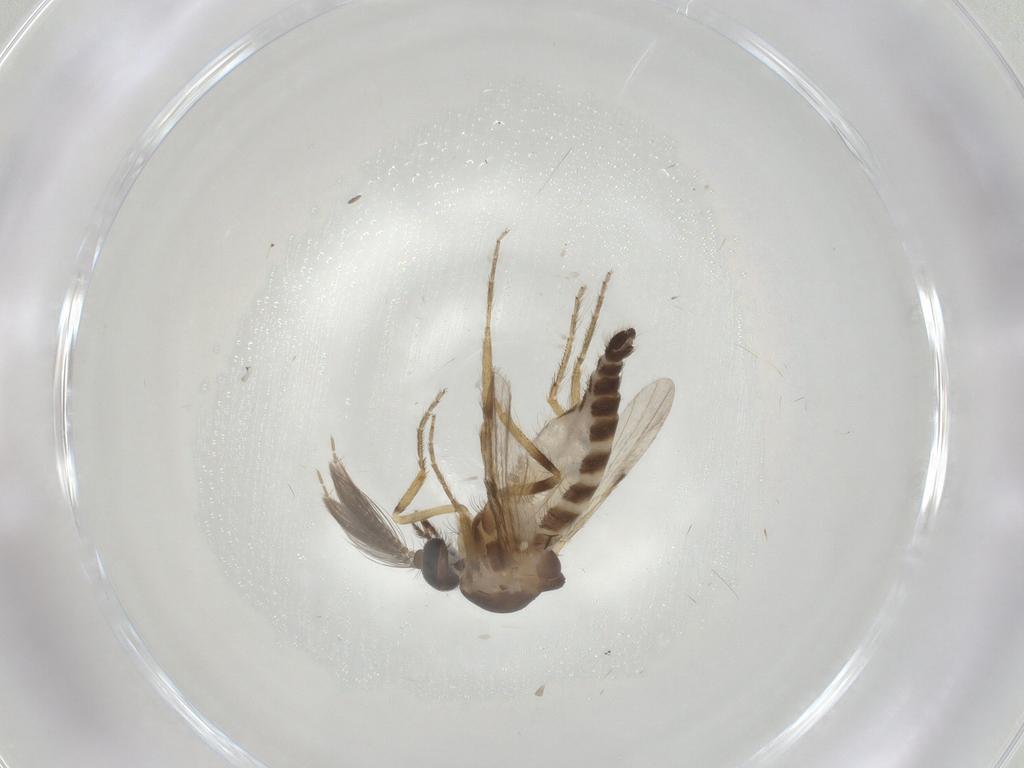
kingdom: Animalia
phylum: Arthropoda
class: Insecta
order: Diptera
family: Ceratopogonidae
